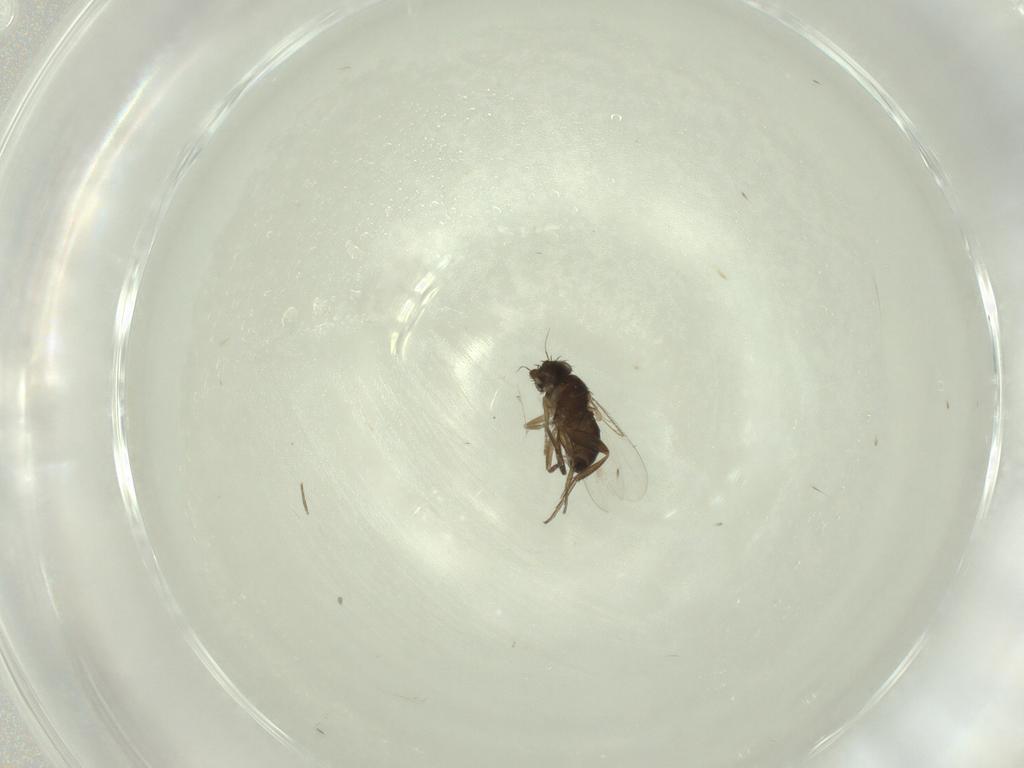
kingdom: Animalia
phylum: Arthropoda
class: Insecta
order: Diptera
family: Phoridae
